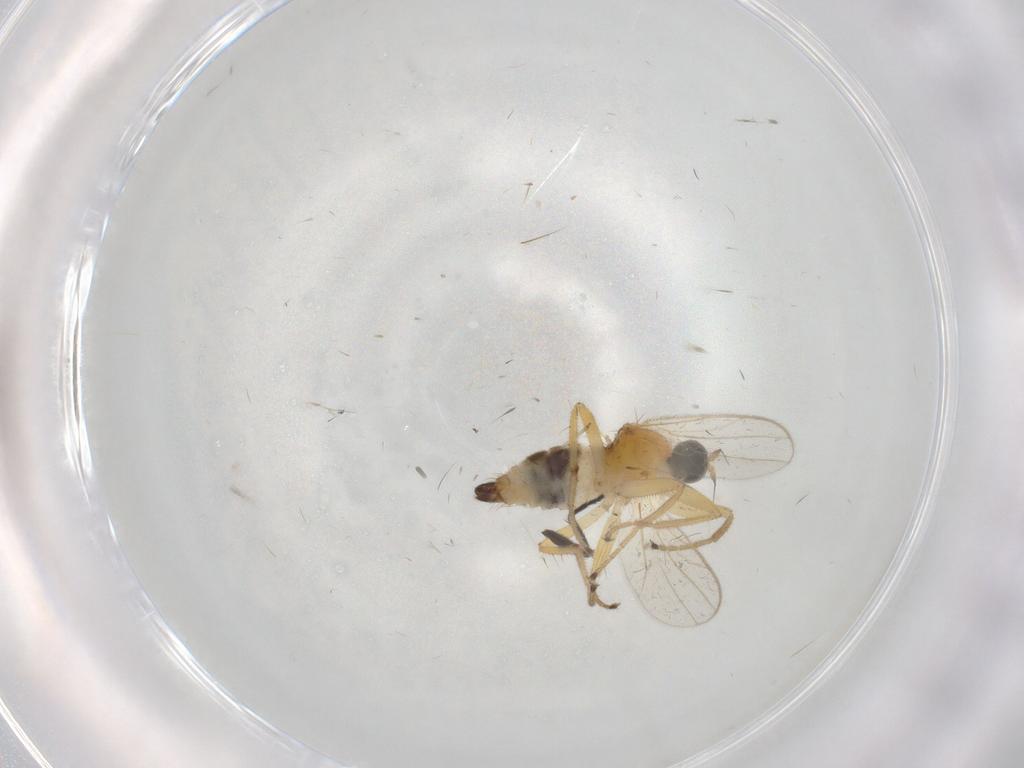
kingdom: Animalia
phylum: Arthropoda
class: Insecta
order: Diptera
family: Hybotidae
